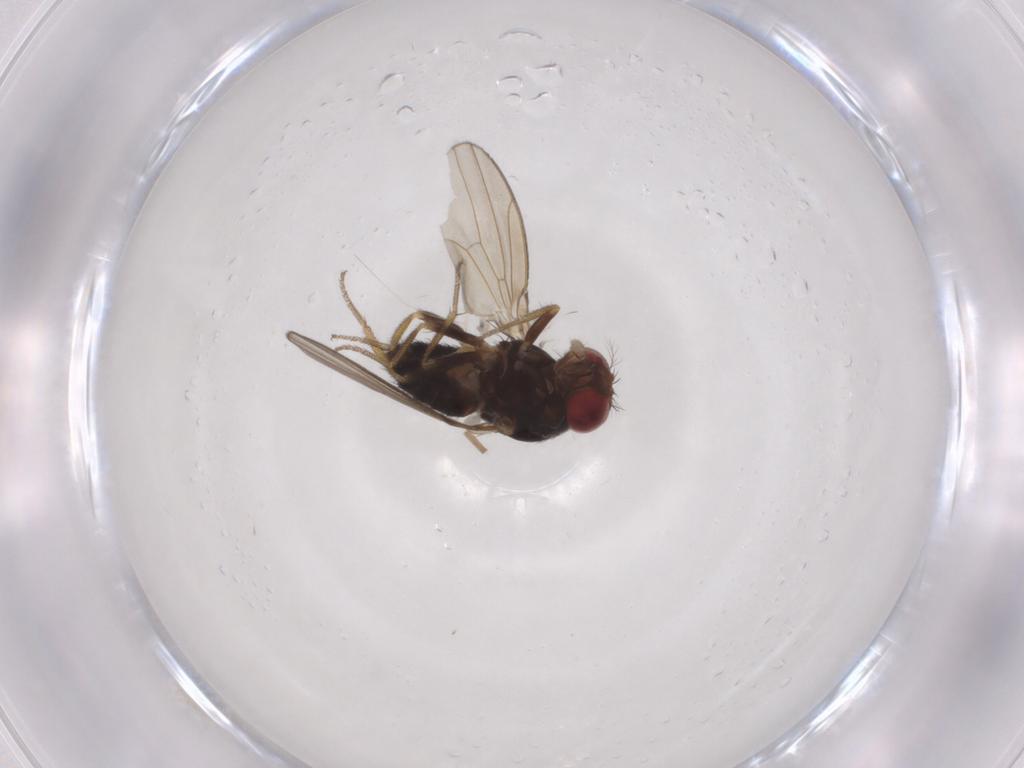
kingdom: Animalia
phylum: Arthropoda
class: Insecta
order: Diptera
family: Drosophilidae
